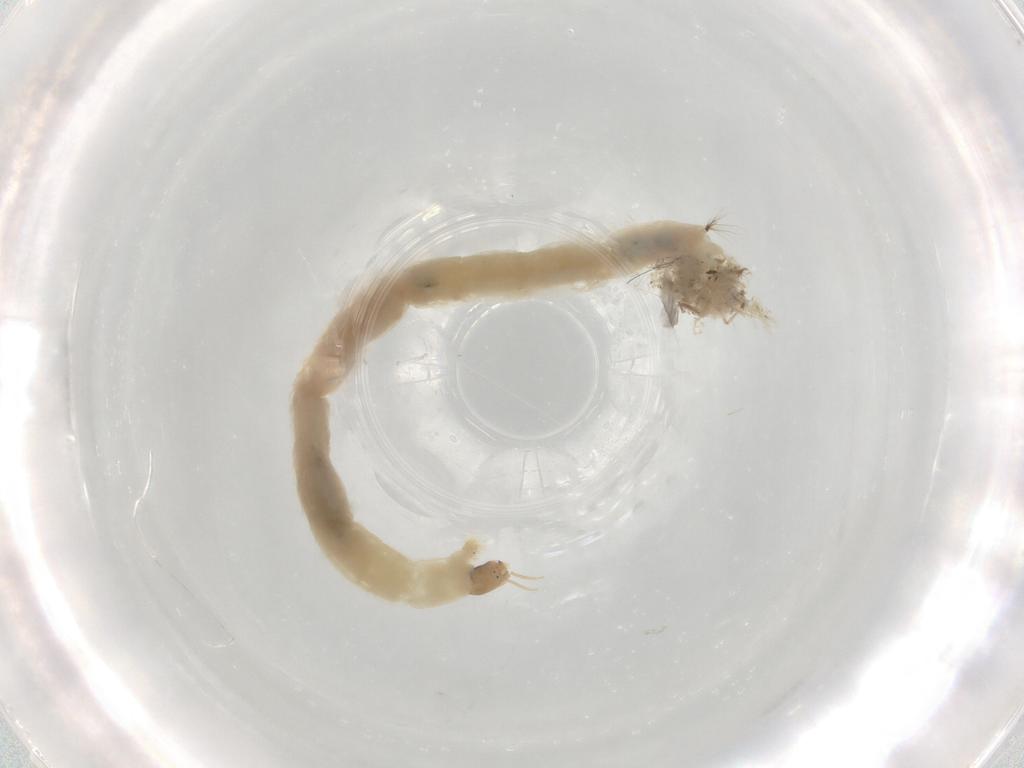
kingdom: Animalia
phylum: Arthropoda
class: Insecta
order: Diptera
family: Chironomidae
